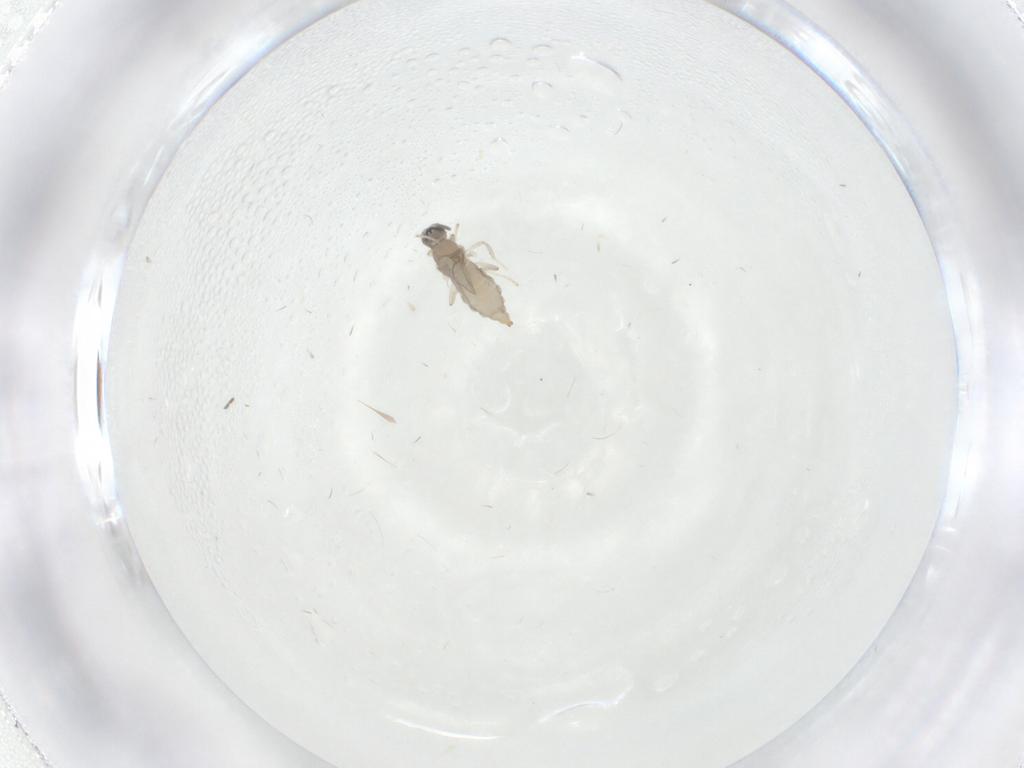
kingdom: Animalia
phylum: Arthropoda
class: Insecta
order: Diptera
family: Cecidomyiidae
